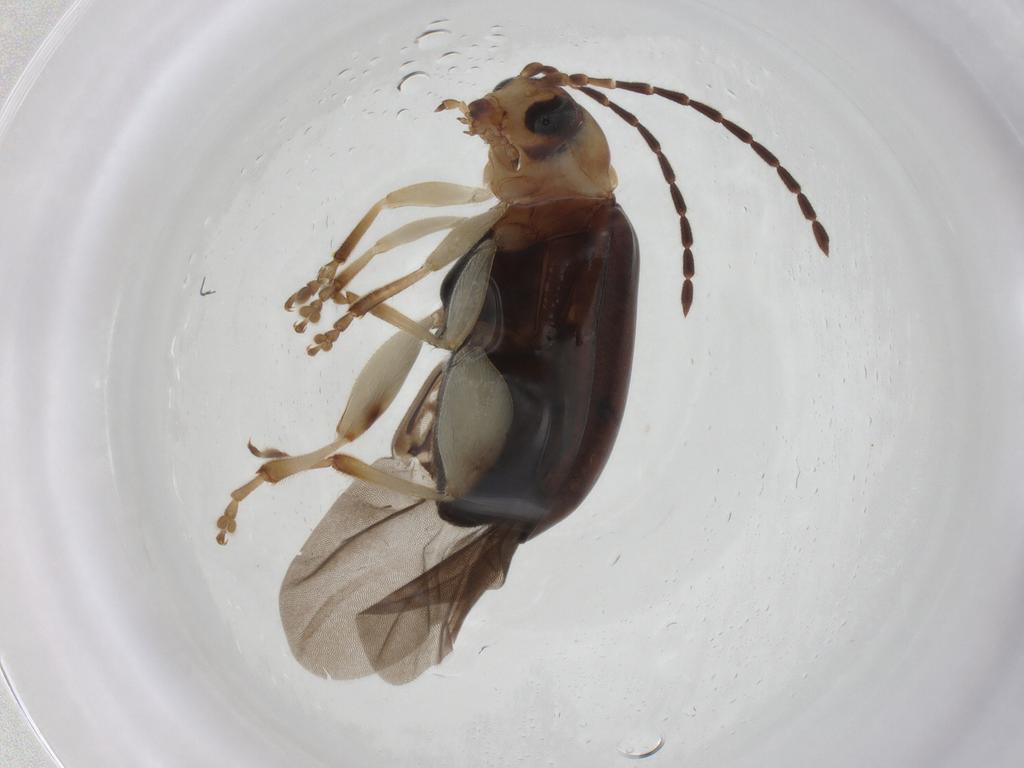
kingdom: Animalia
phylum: Arthropoda
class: Insecta
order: Coleoptera
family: Chrysomelidae
